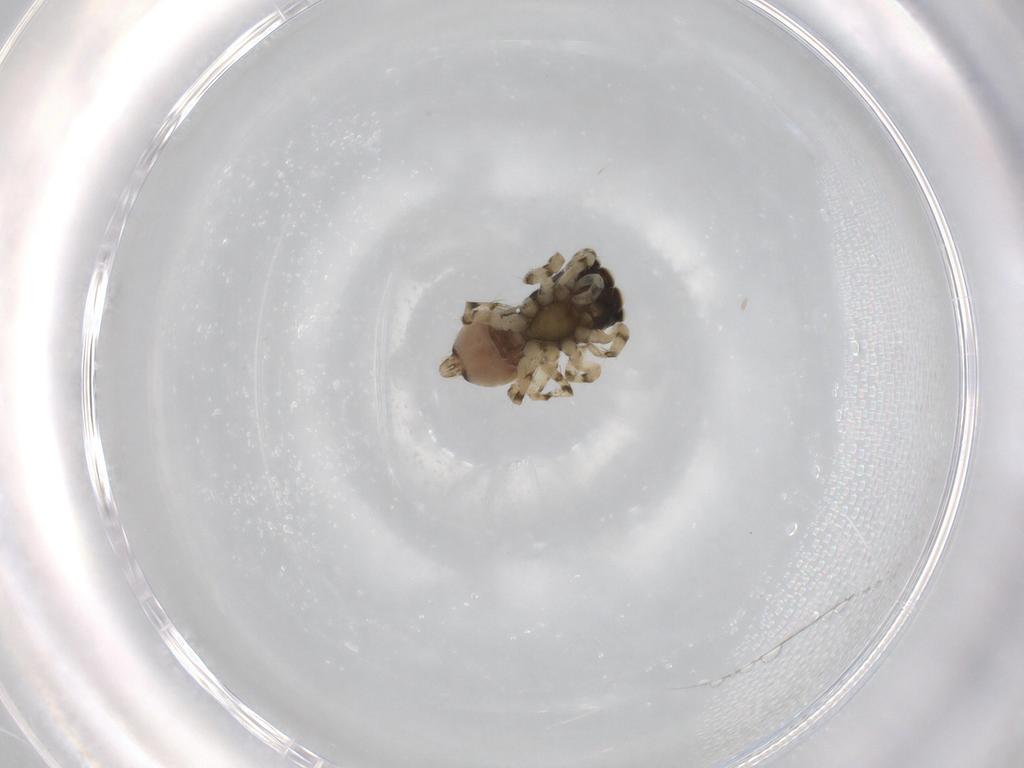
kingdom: Animalia
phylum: Arthropoda
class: Arachnida
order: Araneae
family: Salticidae
